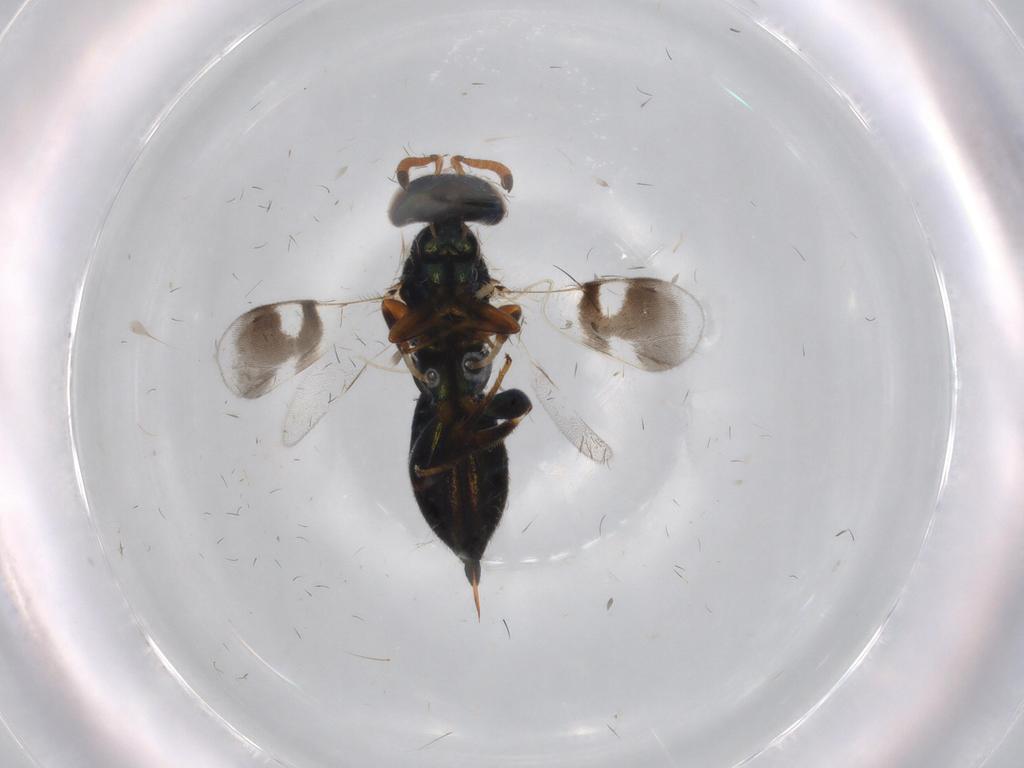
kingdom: Animalia
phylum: Arthropoda
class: Insecta
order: Hymenoptera
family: Cleonyminae
